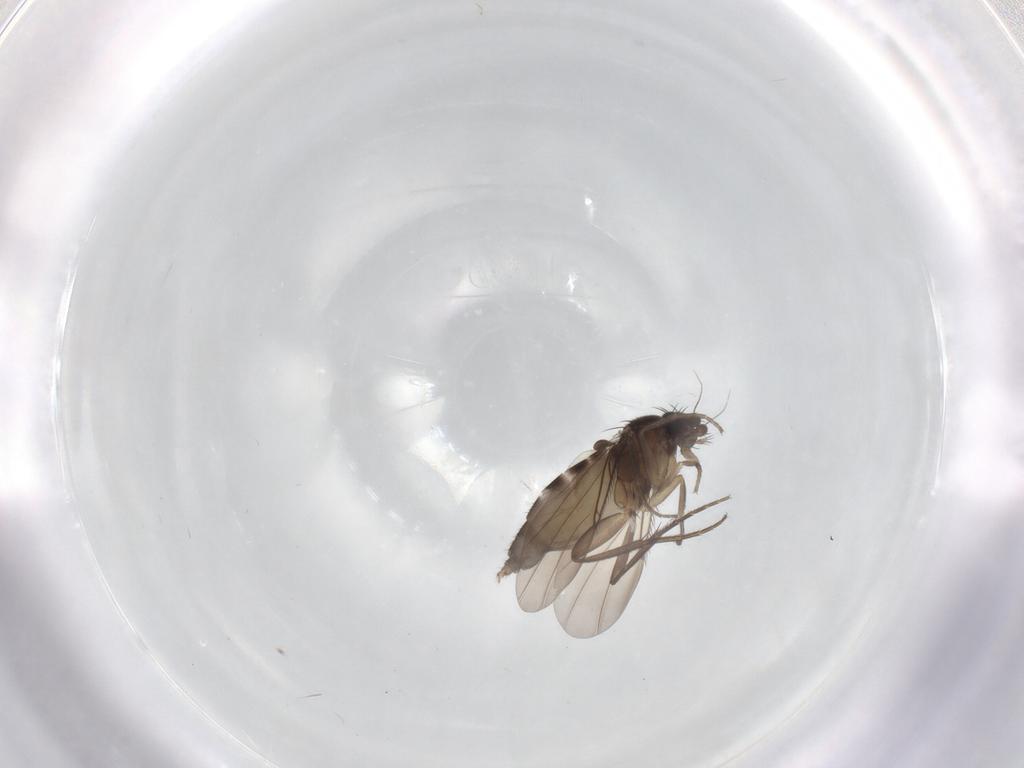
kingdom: Animalia
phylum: Arthropoda
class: Insecta
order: Diptera
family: Phoridae
